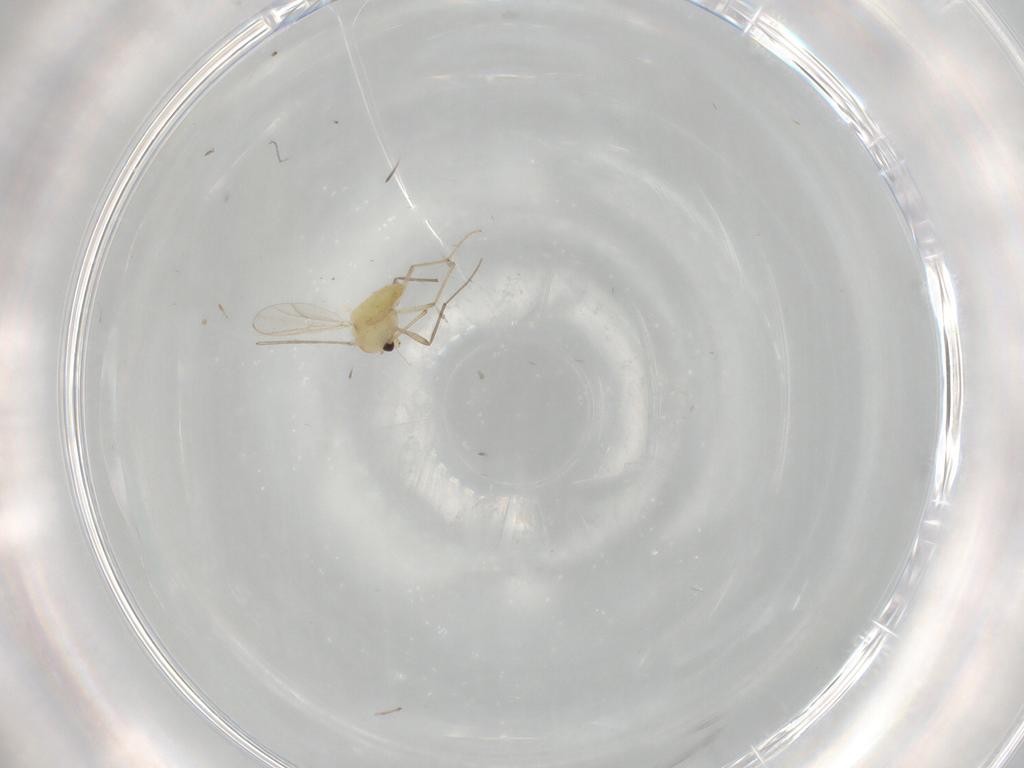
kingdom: Animalia
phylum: Arthropoda
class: Insecta
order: Diptera
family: Chironomidae
